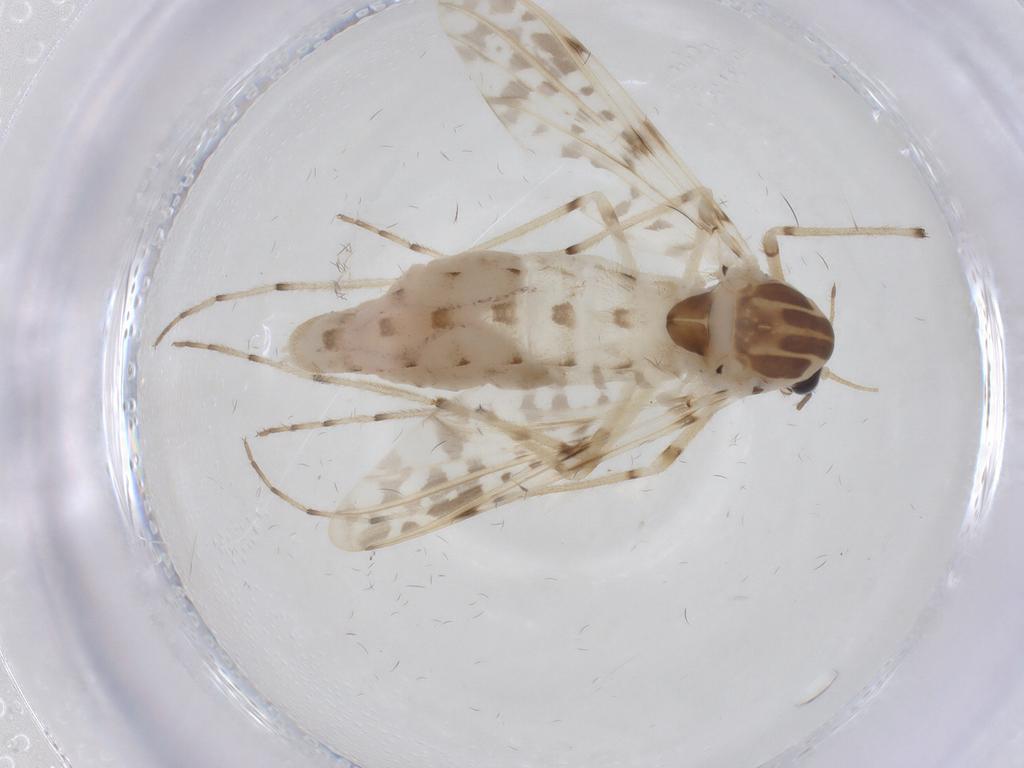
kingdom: Animalia
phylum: Arthropoda
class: Insecta
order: Diptera
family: Chironomidae
